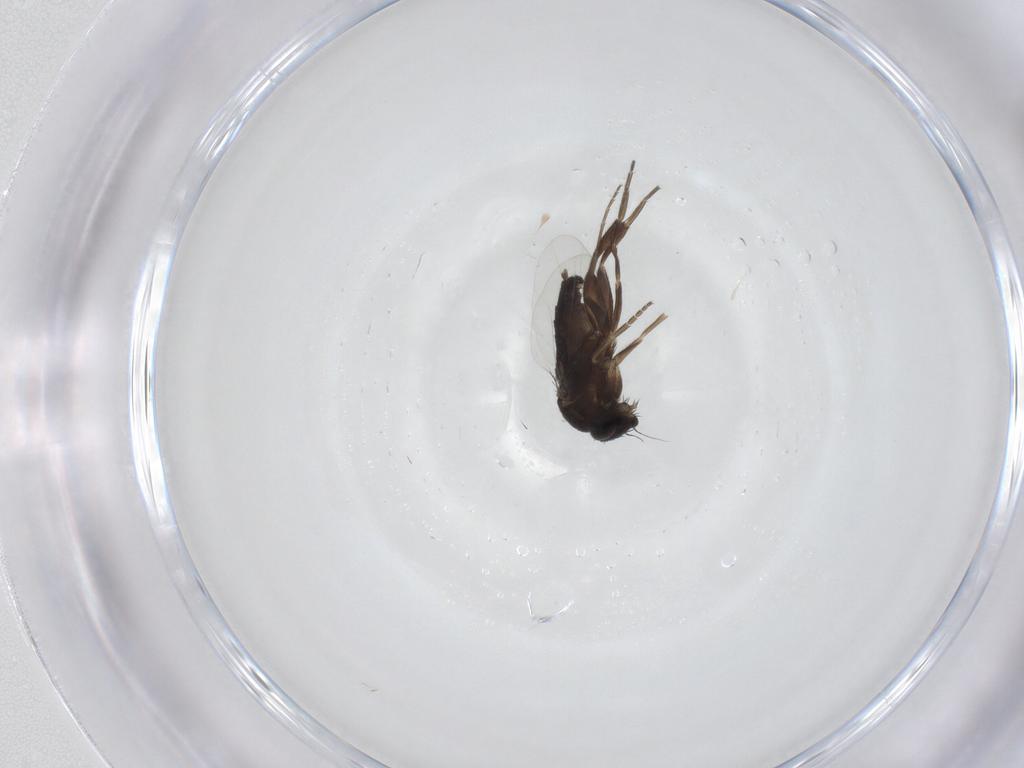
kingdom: Animalia
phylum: Arthropoda
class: Insecta
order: Diptera
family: Phoridae
